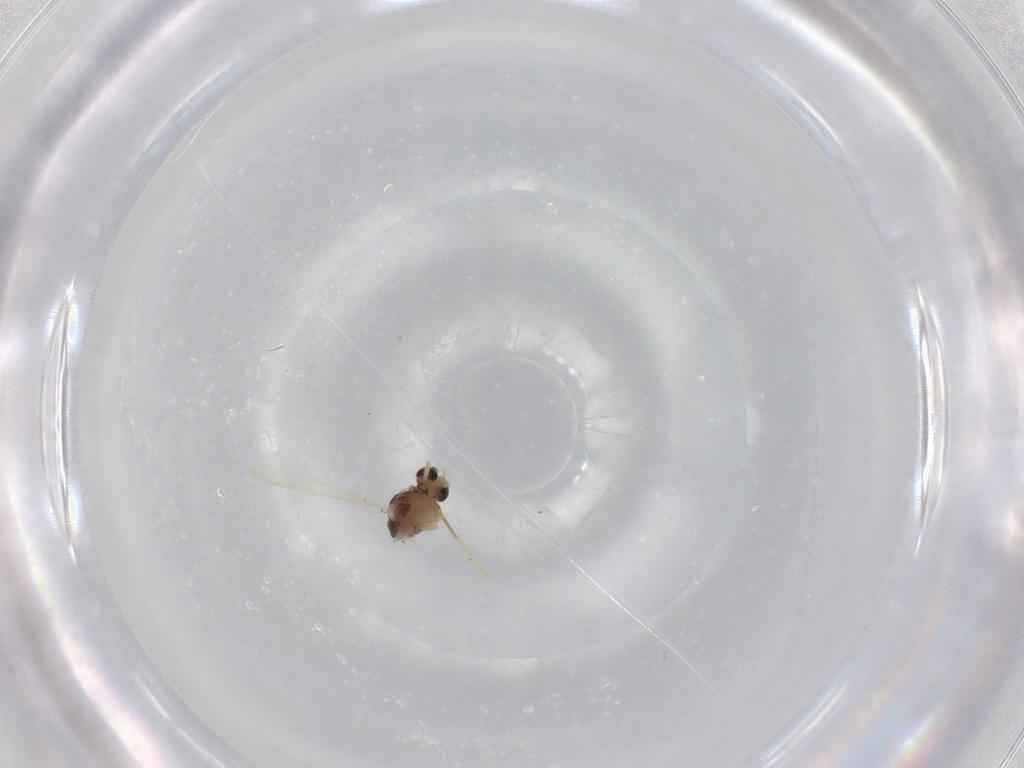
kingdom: Animalia
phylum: Arthropoda
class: Insecta
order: Diptera
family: Chironomidae
